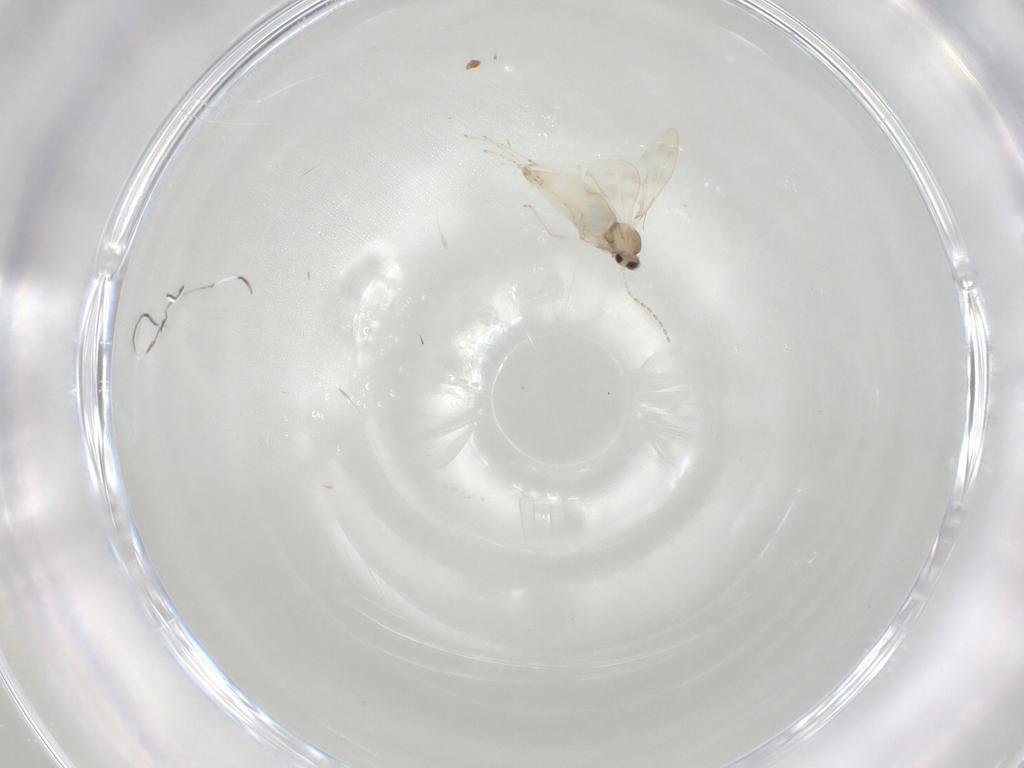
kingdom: Animalia
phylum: Arthropoda
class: Insecta
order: Diptera
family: Cecidomyiidae
